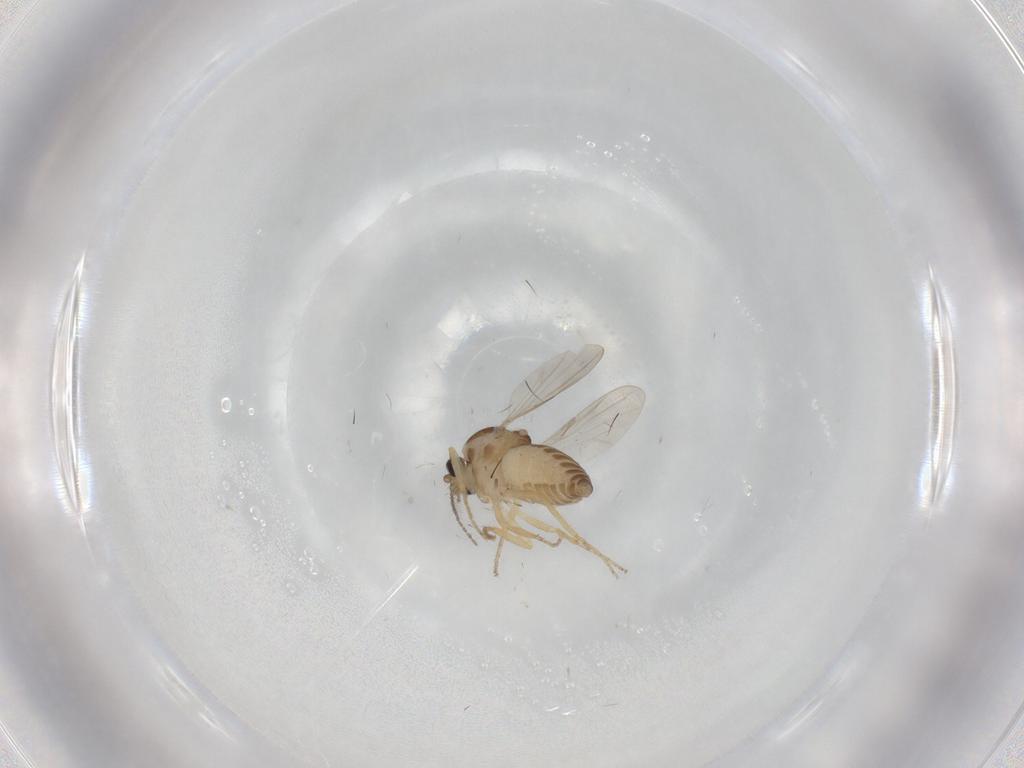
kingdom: Animalia
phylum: Arthropoda
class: Insecta
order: Diptera
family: Ceratopogonidae
